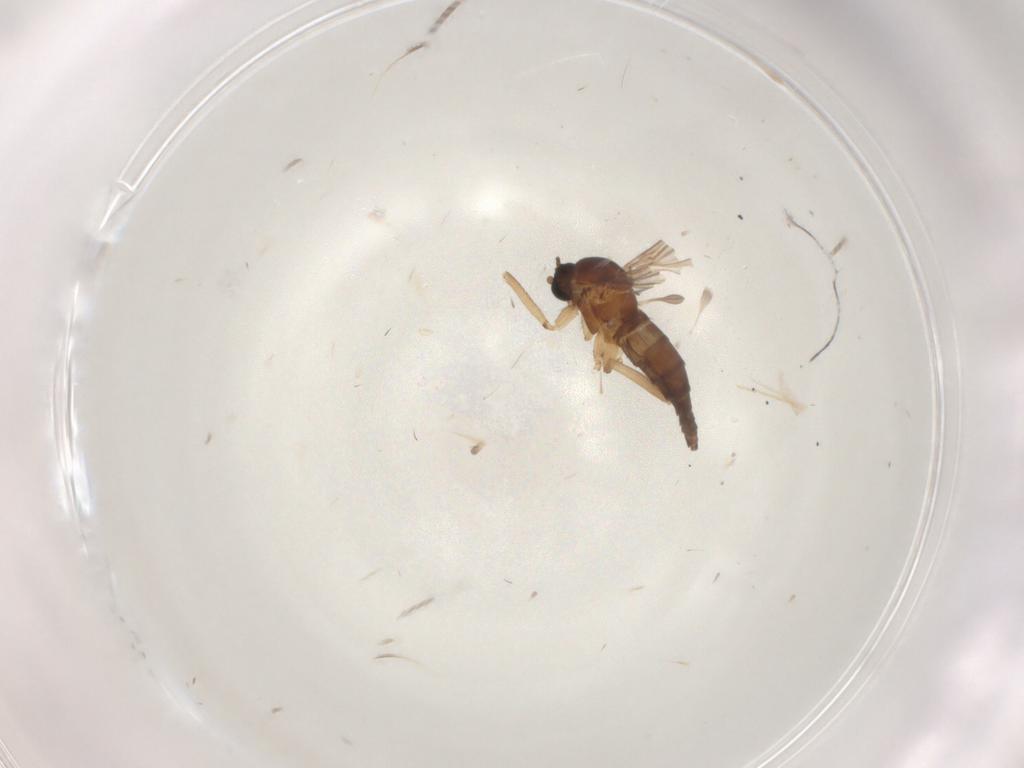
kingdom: Animalia
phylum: Arthropoda
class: Insecta
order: Diptera
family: Sciaridae
